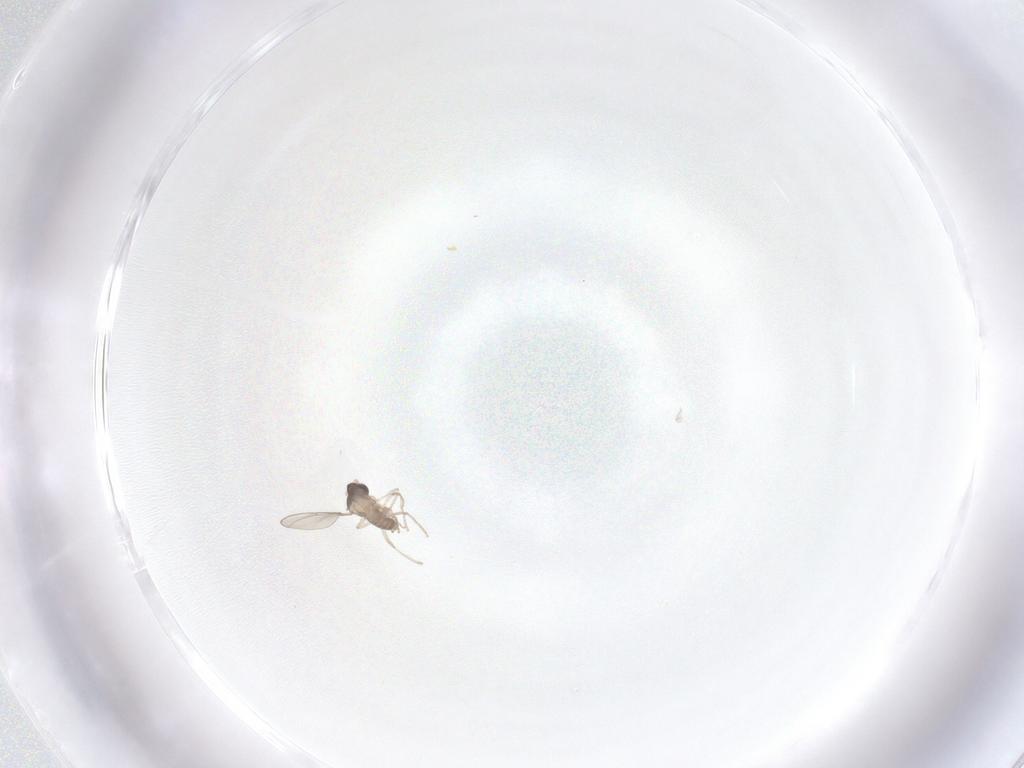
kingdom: Animalia
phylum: Arthropoda
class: Insecta
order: Diptera
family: Cecidomyiidae
